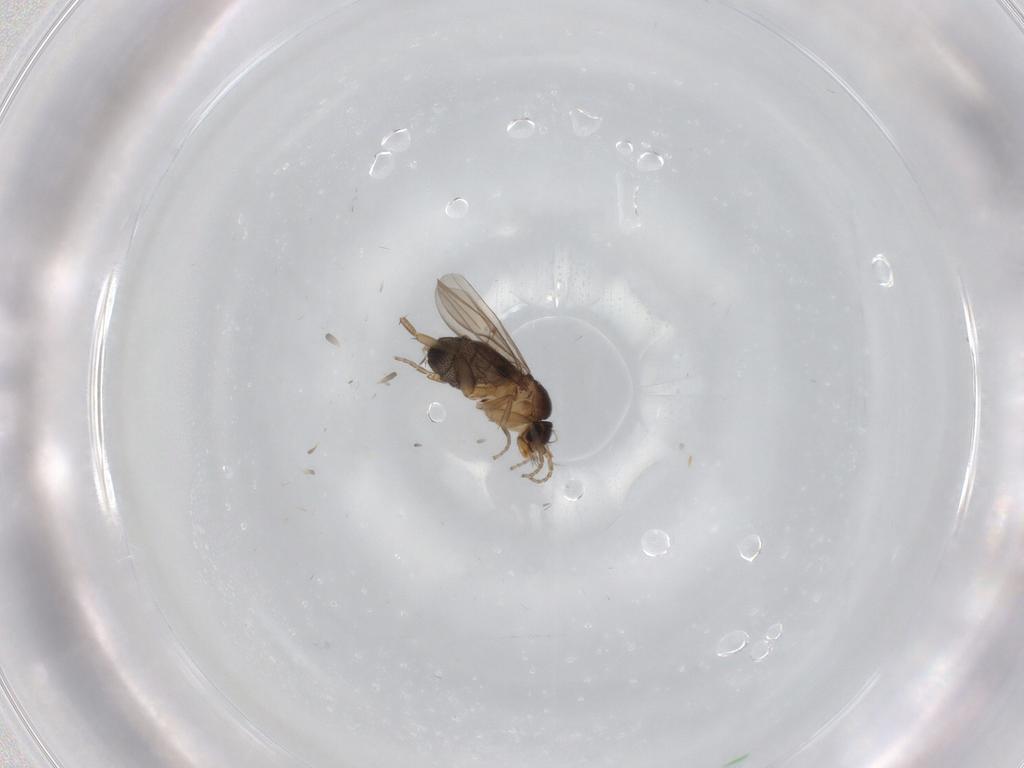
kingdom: Animalia
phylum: Arthropoda
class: Insecta
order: Diptera
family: Phoridae
